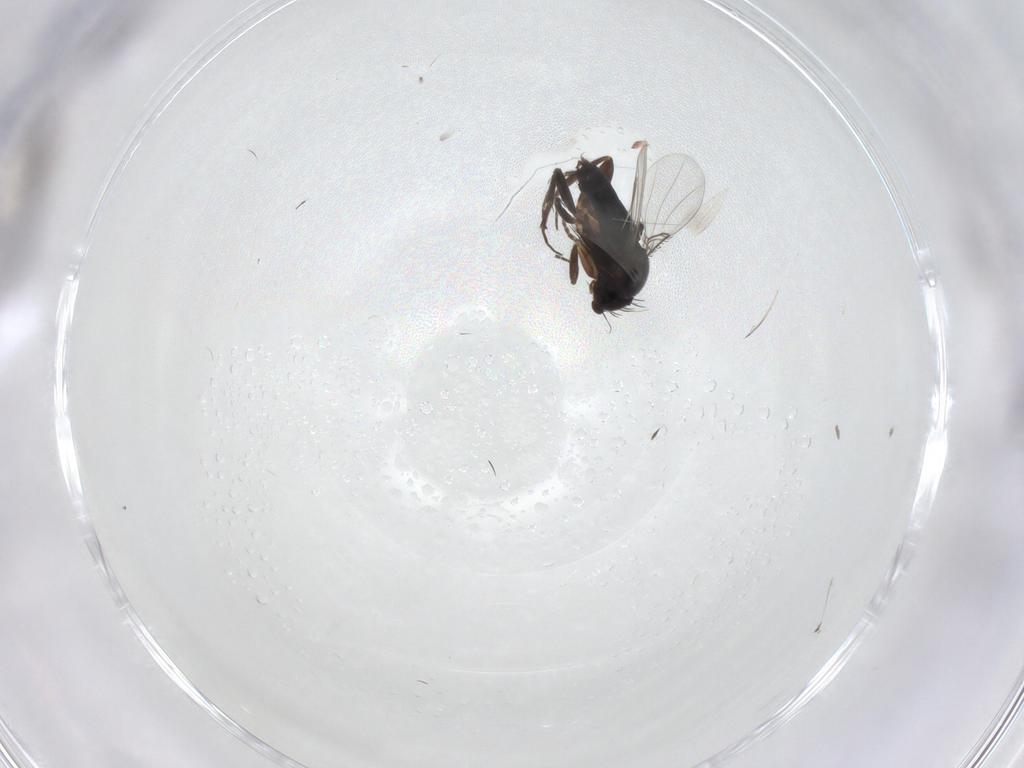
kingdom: Animalia
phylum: Arthropoda
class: Insecta
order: Diptera
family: Phoridae
